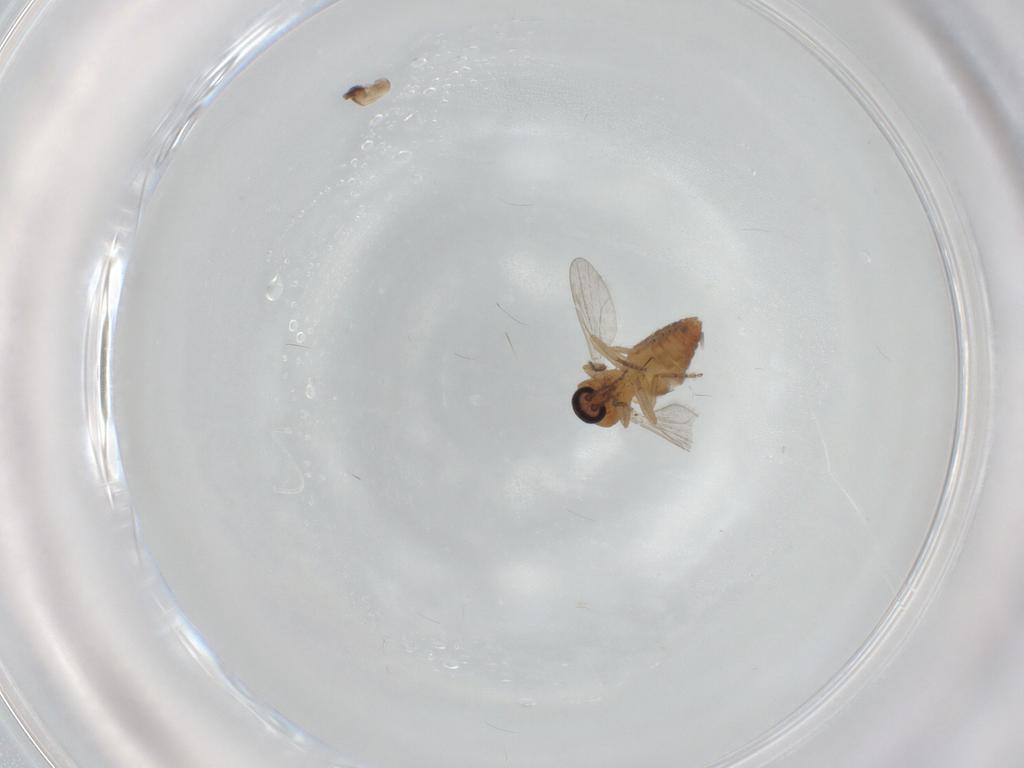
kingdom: Animalia
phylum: Arthropoda
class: Insecta
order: Diptera
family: Ceratopogonidae
